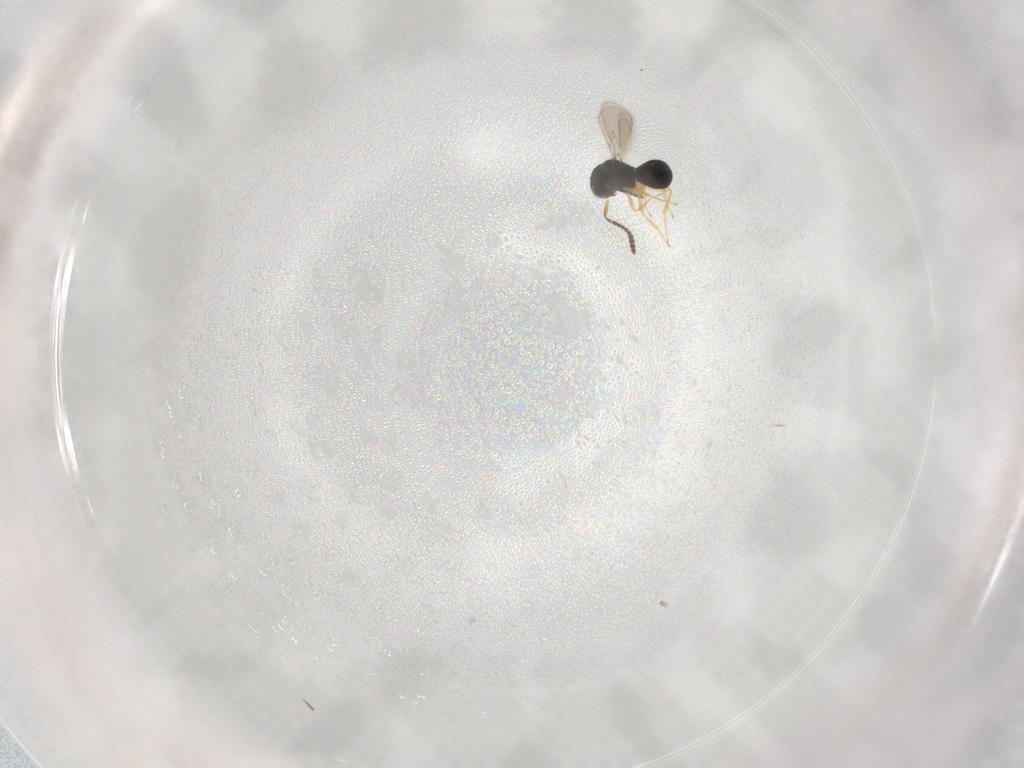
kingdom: Animalia
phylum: Arthropoda
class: Insecta
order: Hymenoptera
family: Scelionidae
